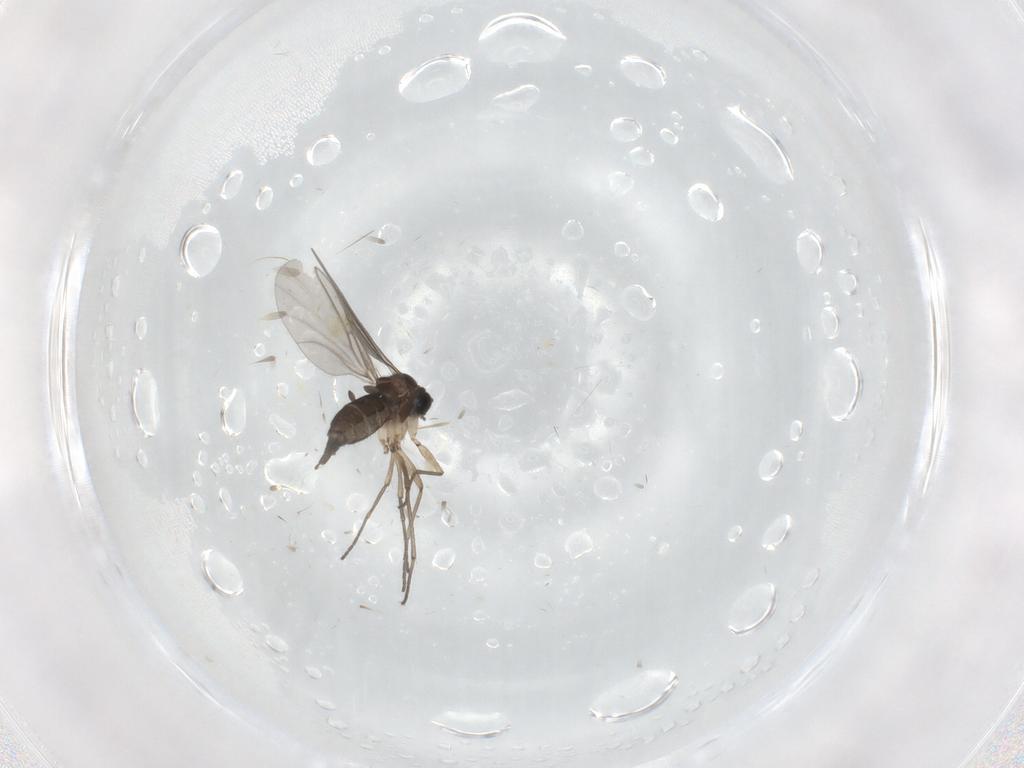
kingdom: Animalia
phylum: Arthropoda
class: Insecta
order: Diptera
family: Sciaridae
